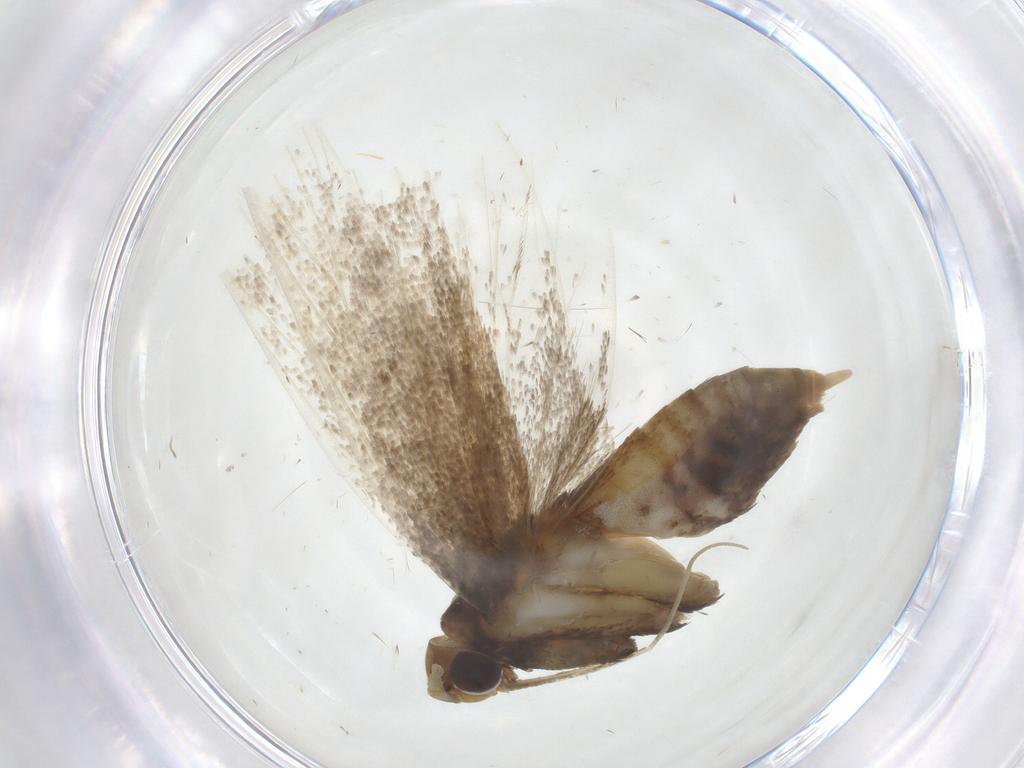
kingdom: Animalia
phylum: Arthropoda
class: Insecta
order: Lepidoptera
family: Lecithoceridae
